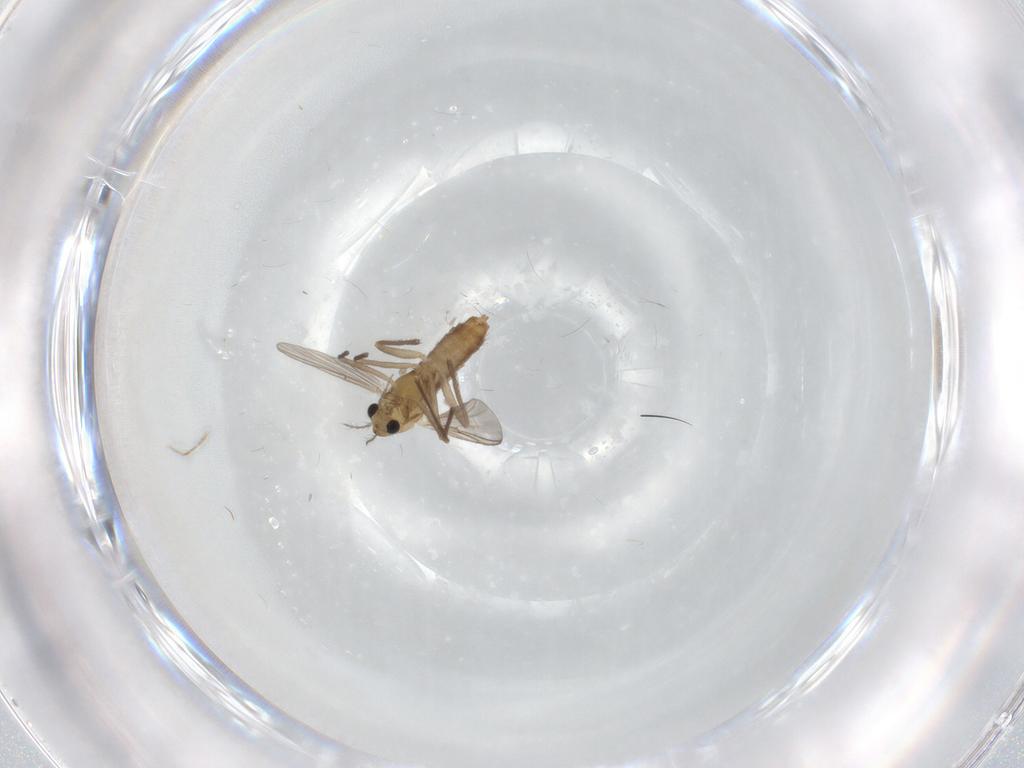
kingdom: Animalia
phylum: Arthropoda
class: Insecta
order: Diptera
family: Chironomidae
